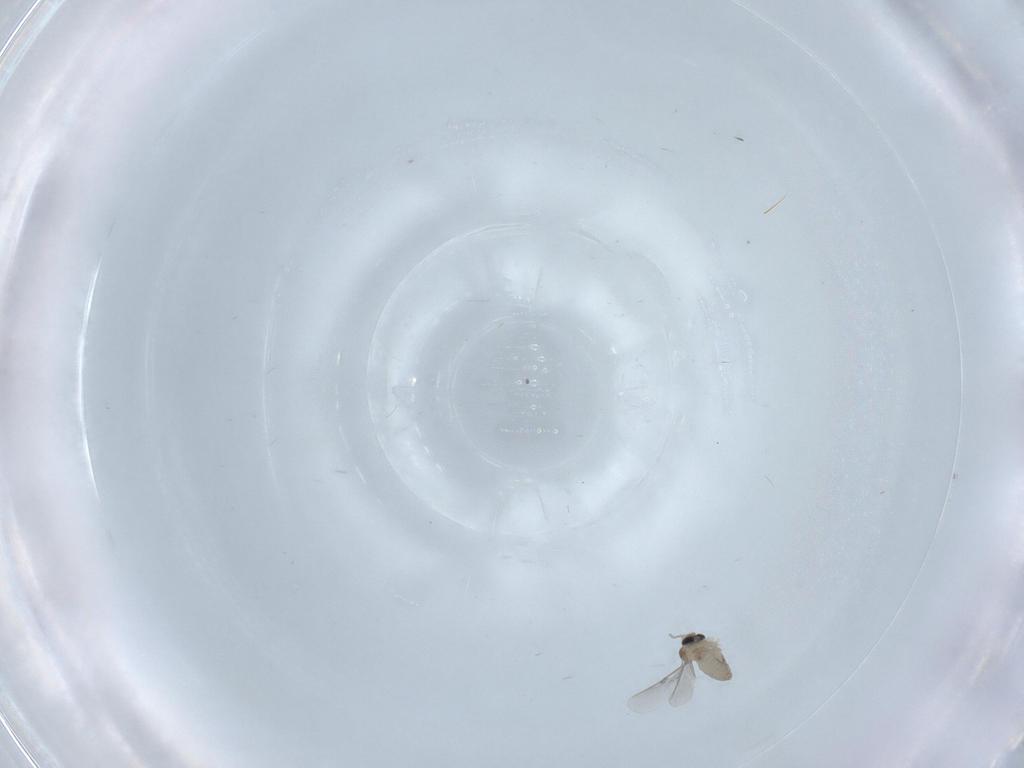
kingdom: Animalia
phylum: Arthropoda
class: Insecta
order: Diptera
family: Cecidomyiidae
